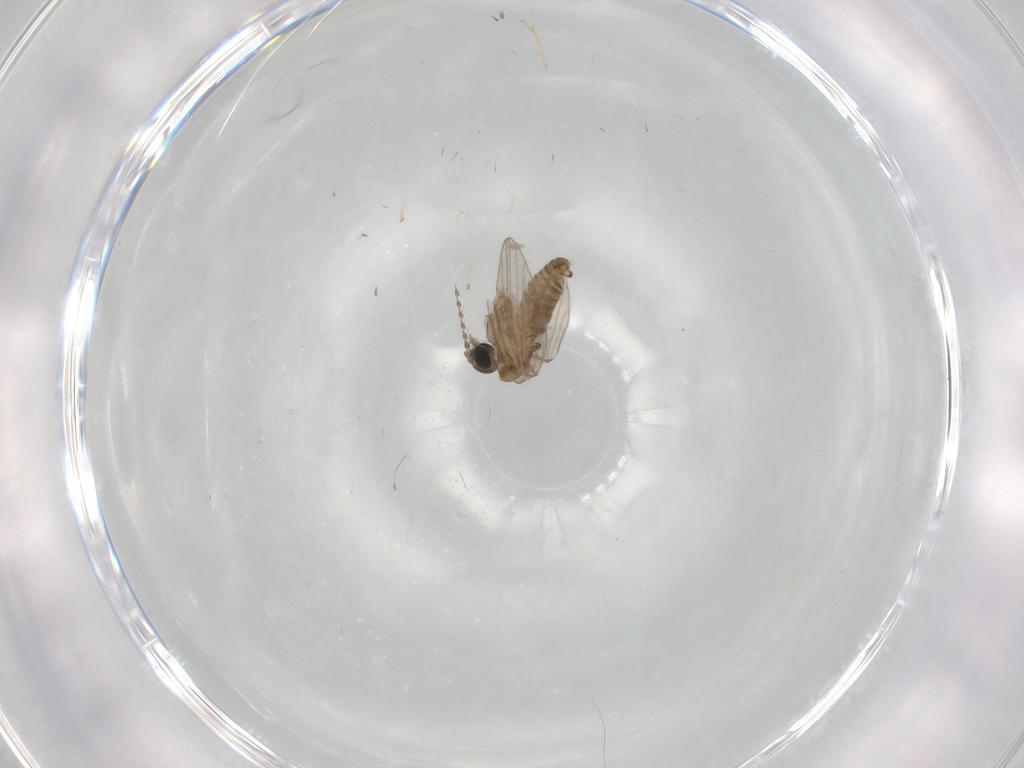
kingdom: Animalia
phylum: Arthropoda
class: Insecta
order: Diptera
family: Chironomidae
